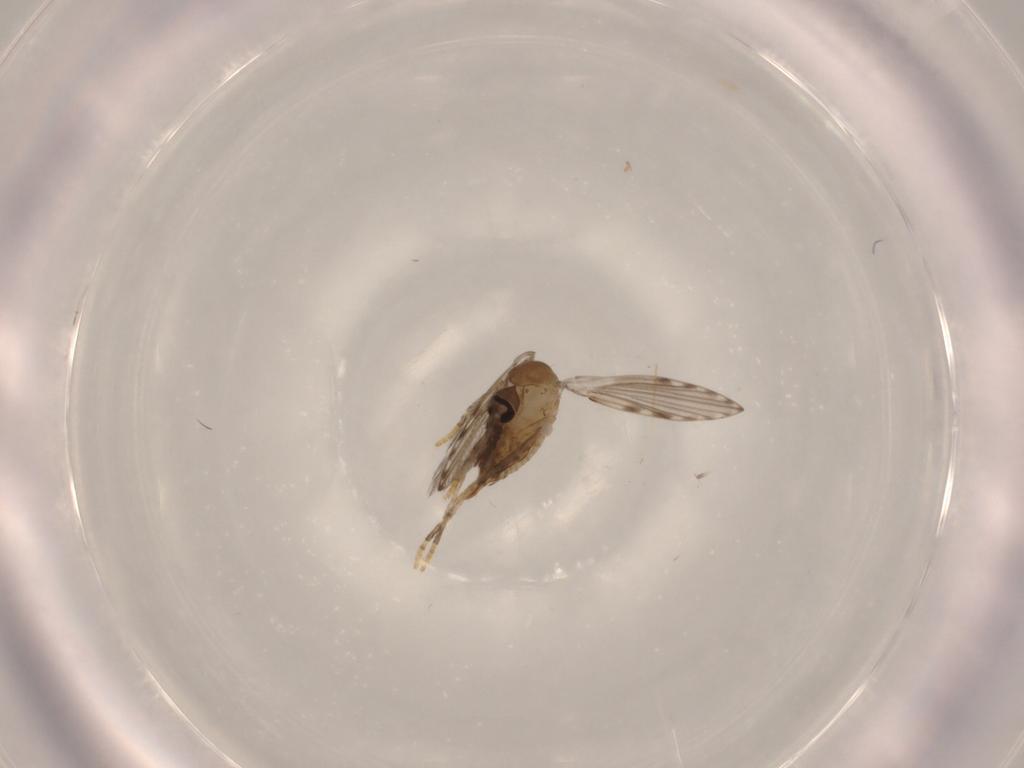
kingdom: Animalia
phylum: Arthropoda
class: Insecta
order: Diptera
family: Psychodidae
